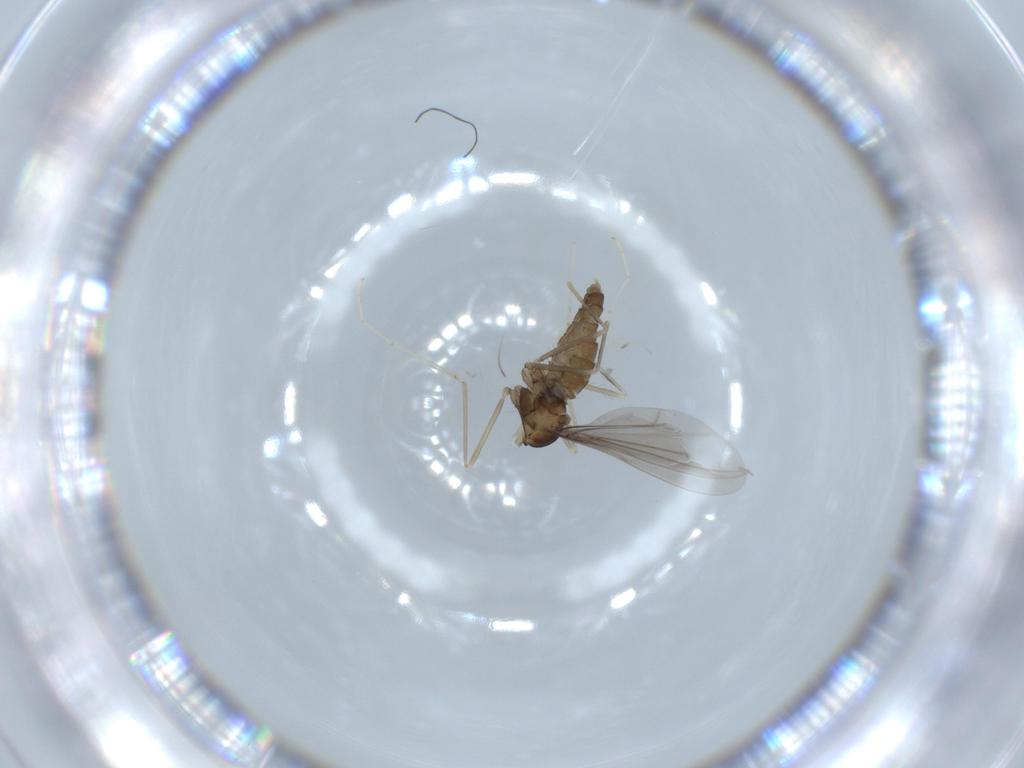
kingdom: Animalia
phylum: Arthropoda
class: Insecta
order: Diptera
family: Cecidomyiidae
